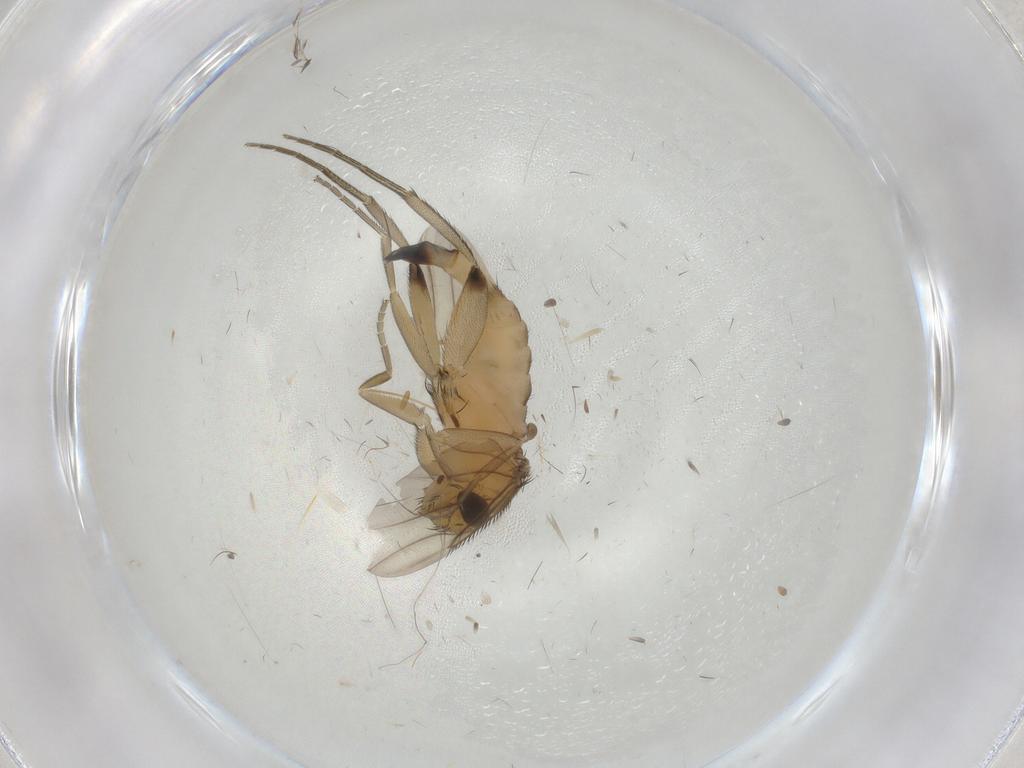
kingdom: Animalia
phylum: Arthropoda
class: Insecta
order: Diptera
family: Phoridae
